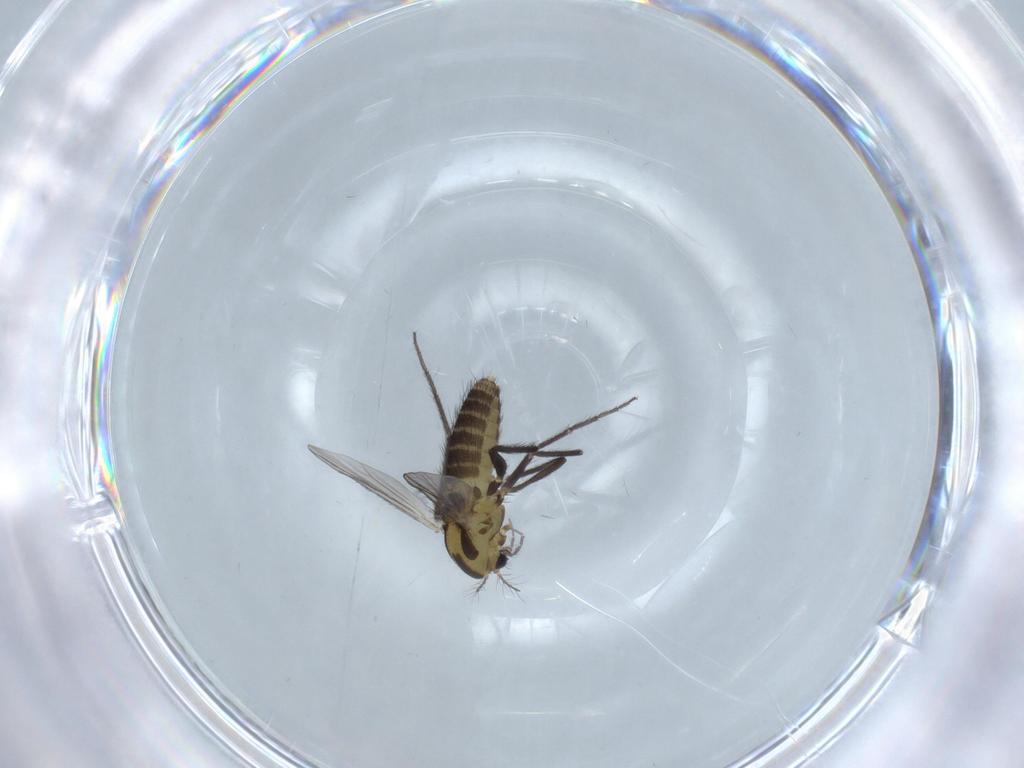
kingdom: Animalia
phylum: Arthropoda
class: Insecta
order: Diptera
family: Chironomidae
